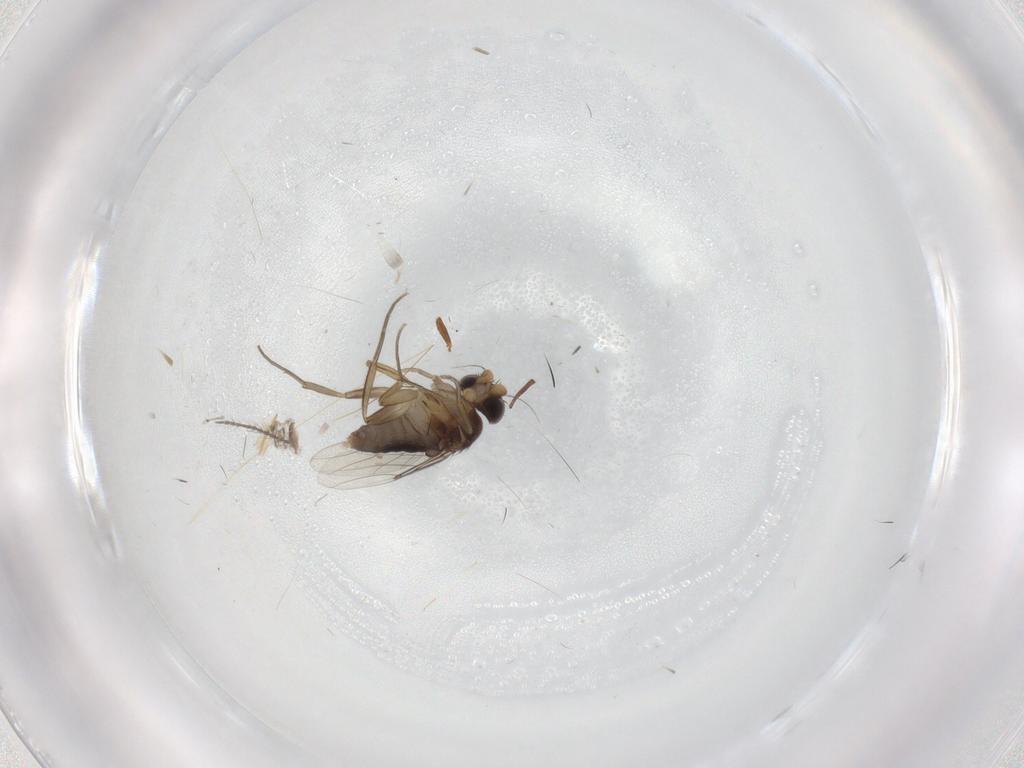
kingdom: Animalia
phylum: Arthropoda
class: Insecta
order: Diptera
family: Phoridae
